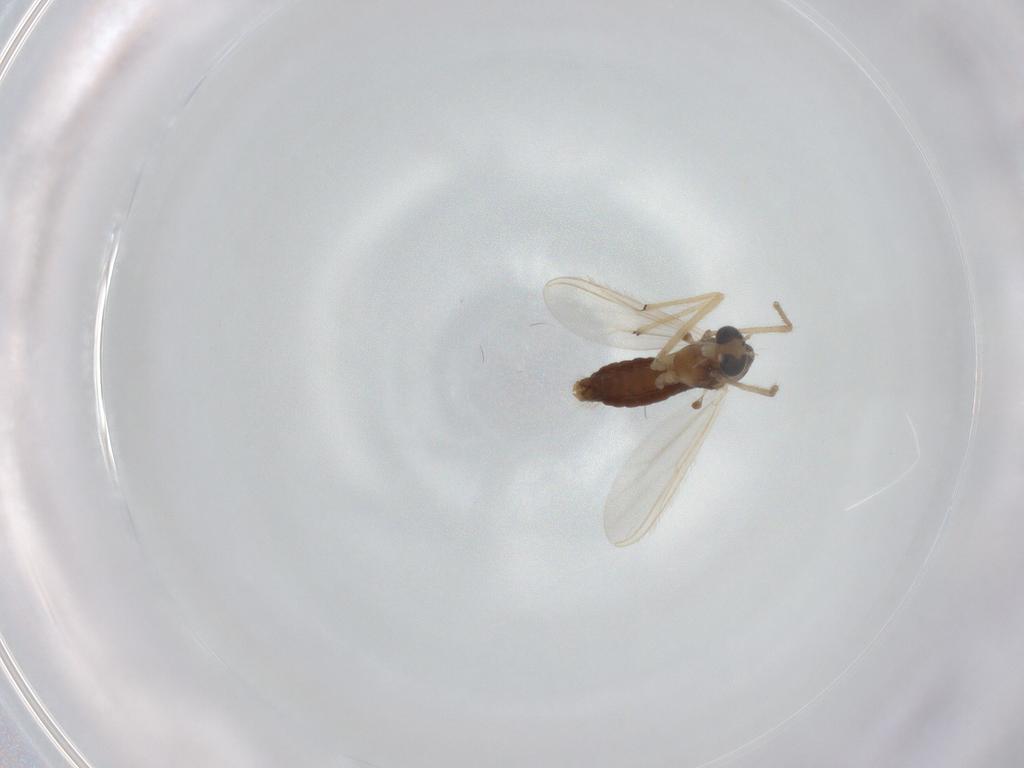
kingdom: Animalia
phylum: Arthropoda
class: Insecta
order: Diptera
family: Chironomidae
